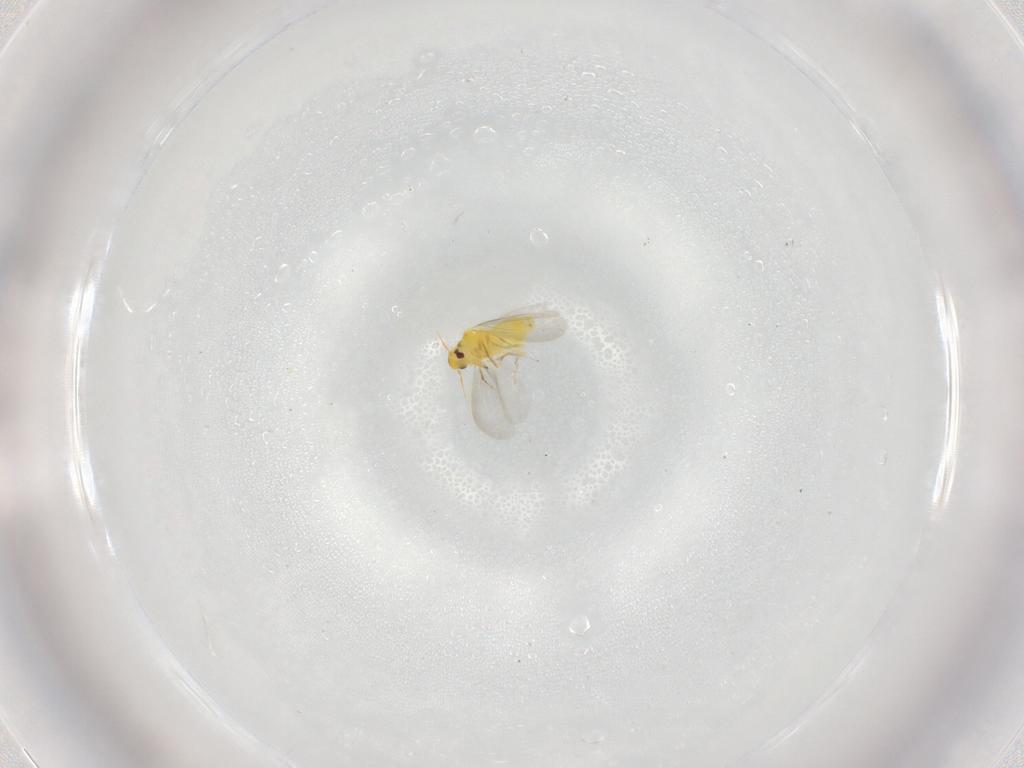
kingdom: Animalia
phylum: Arthropoda
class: Insecta
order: Hemiptera
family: Aleyrodidae
